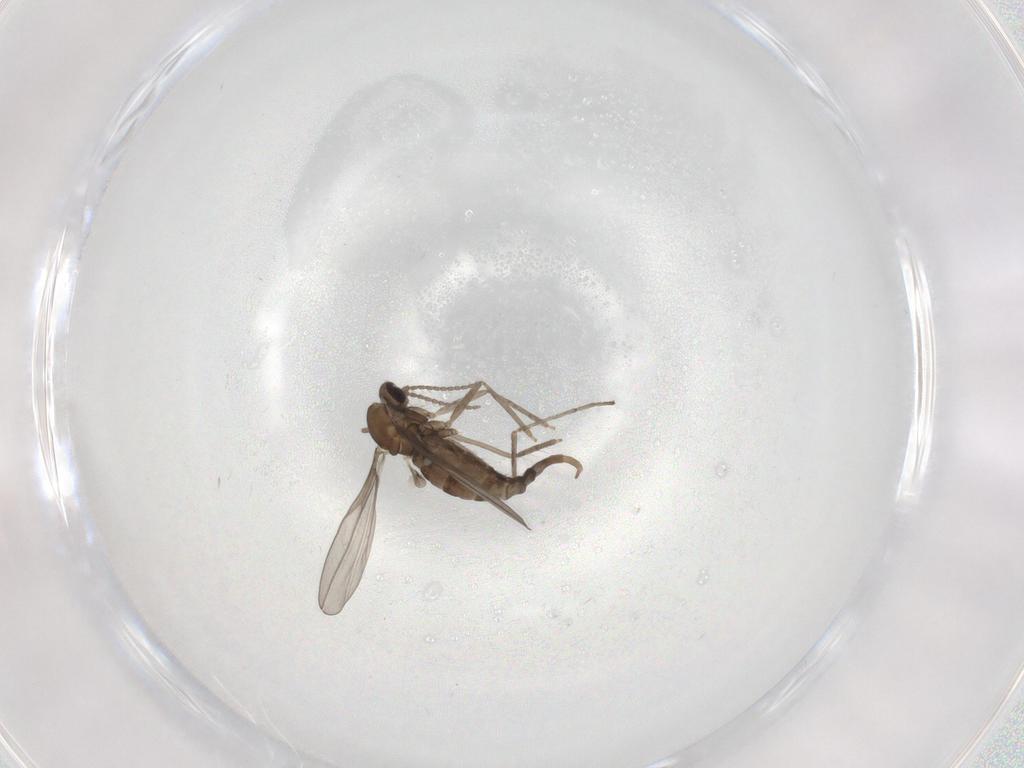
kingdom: Animalia
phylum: Arthropoda
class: Insecta
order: Diptera
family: Cecidomyiidae
